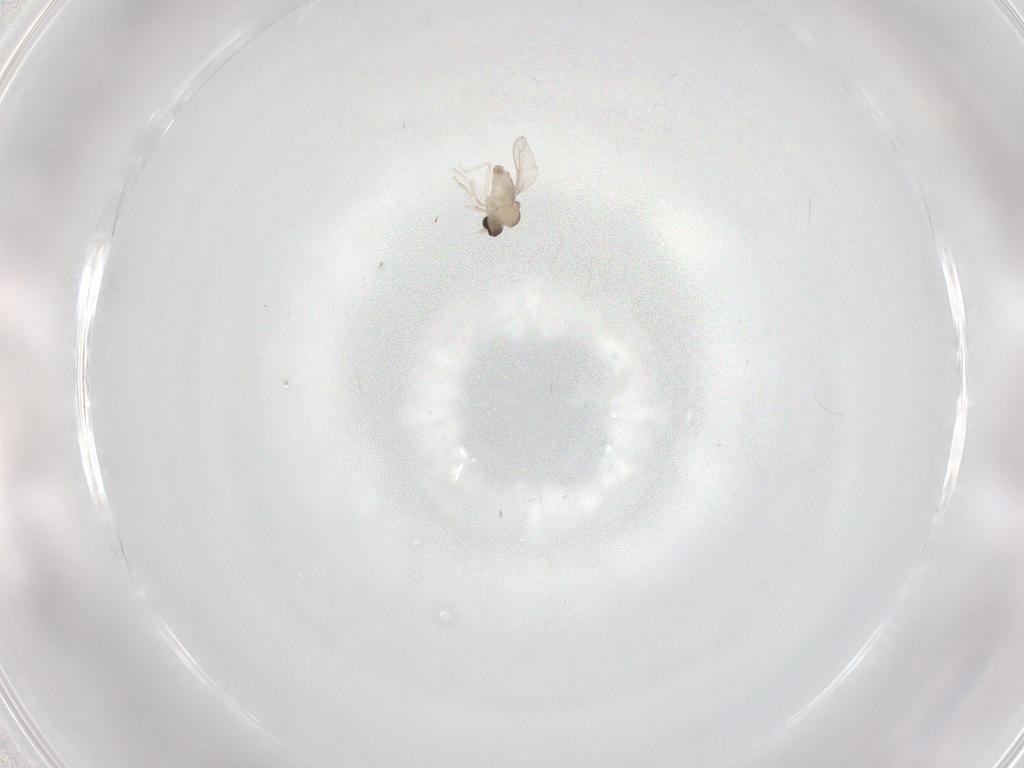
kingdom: Animalia
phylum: Arthropoda
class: Insecta
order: Diptera
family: Cecidomyiidae
